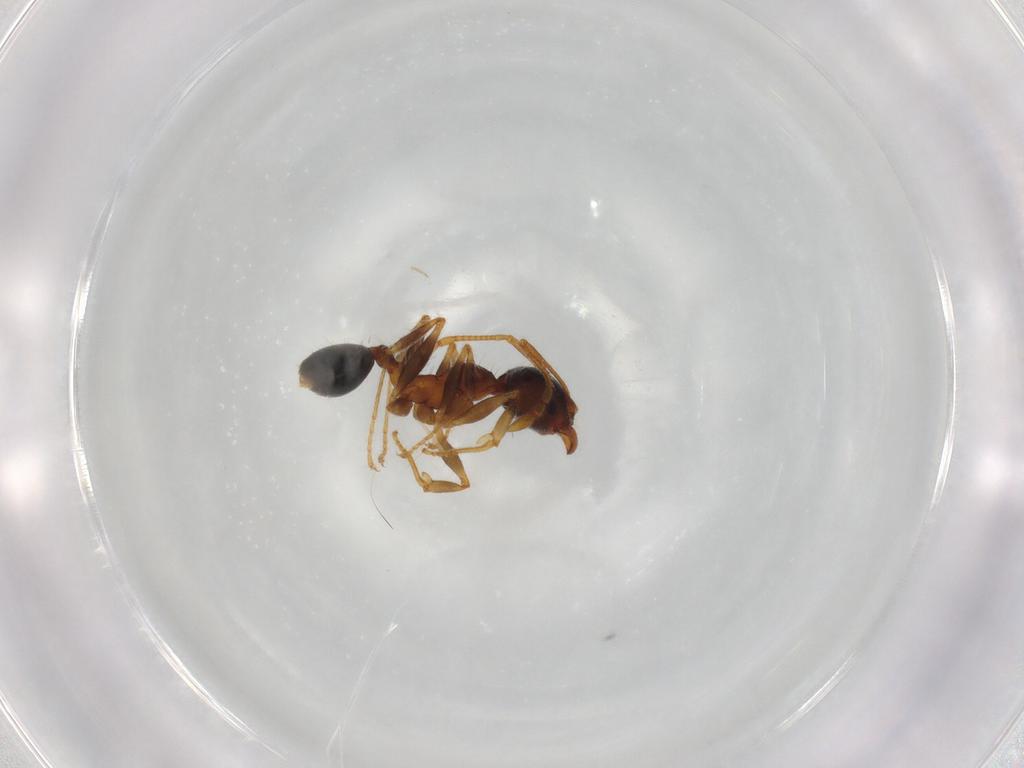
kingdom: Animalia
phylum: Arthropoda
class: Insecta
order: Hymenoptera
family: Formicidae
